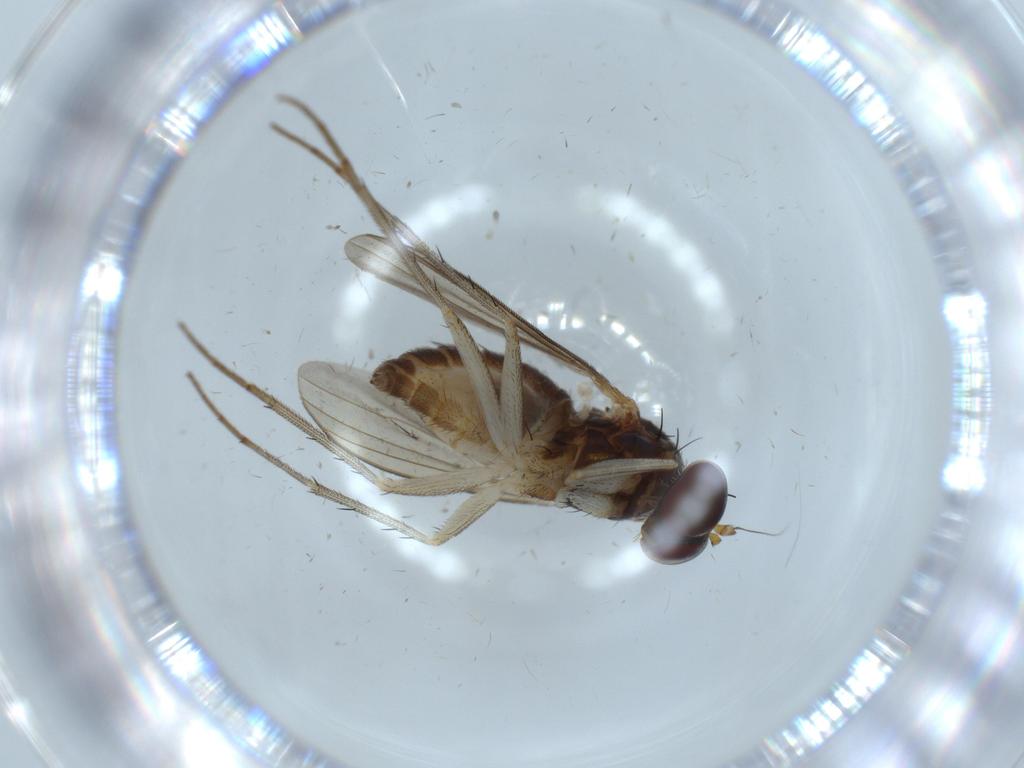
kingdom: Animalia
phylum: Arthropoda
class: Insecta
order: Diptera
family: Dolichopodidae
